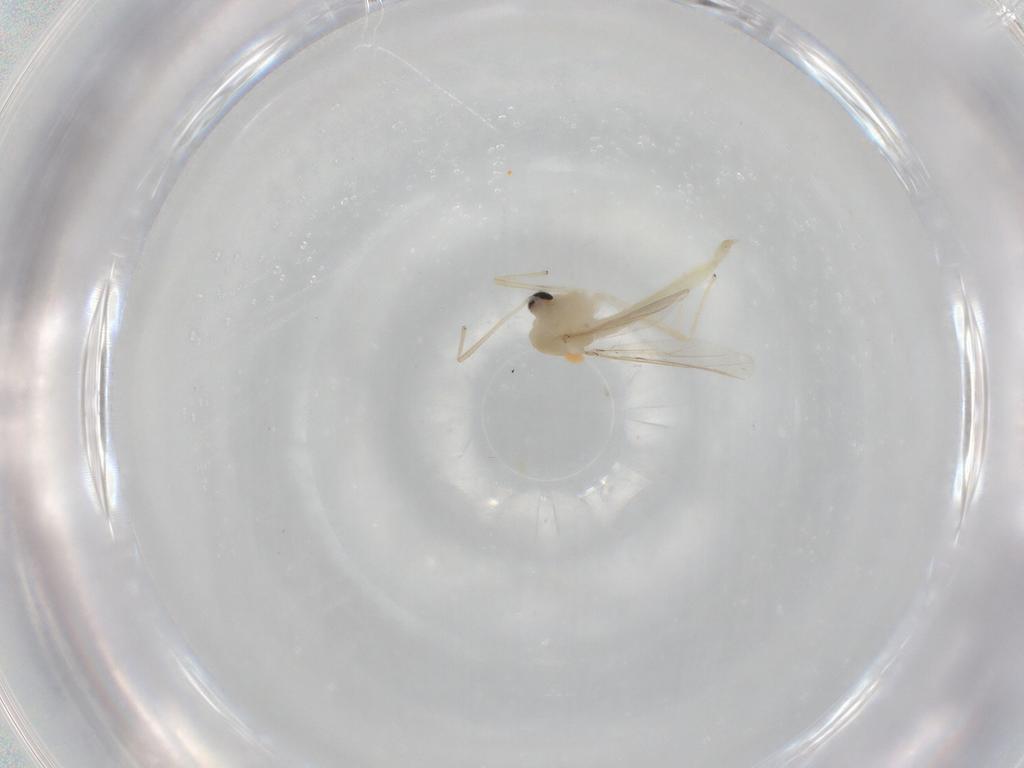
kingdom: Animalia
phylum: Arthropoda
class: Insecta
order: Diptera
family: Chironomidae
